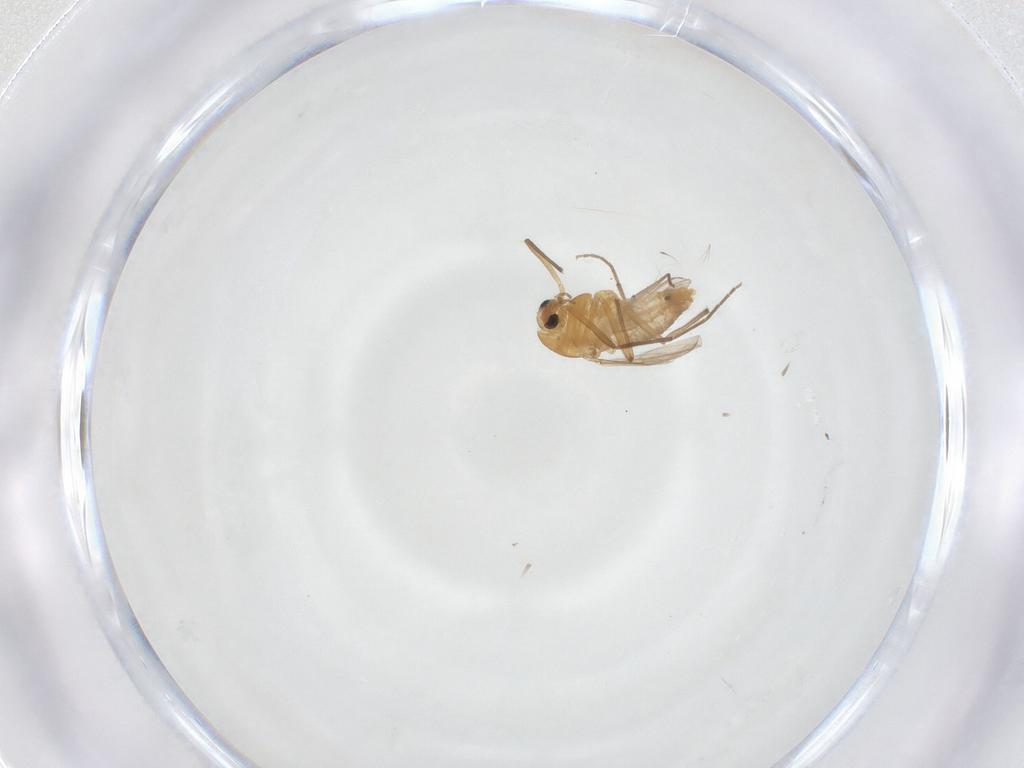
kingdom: Animalia
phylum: Arthropoda
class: Insecta
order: Diptera
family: Chironomidae
